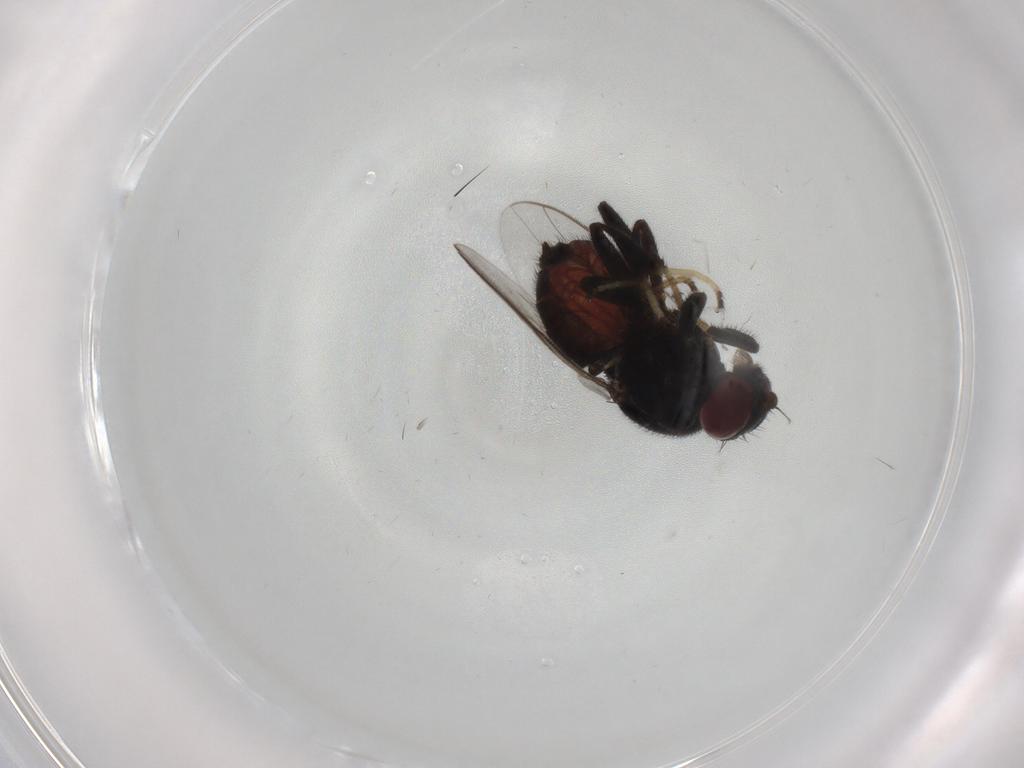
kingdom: Animalia
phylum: Arthropoda
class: Insecta
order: Diptera
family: Chloropidae
